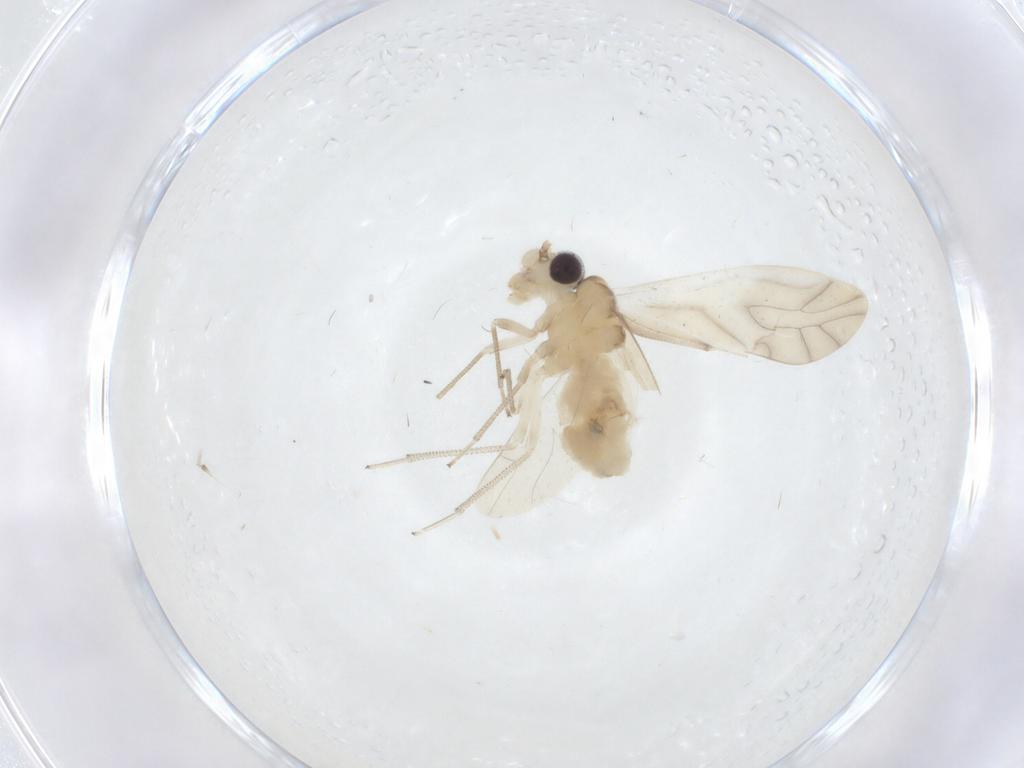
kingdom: Animalia
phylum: Arthropoda
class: Insecta
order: Psocodea
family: Caeciliusidae
